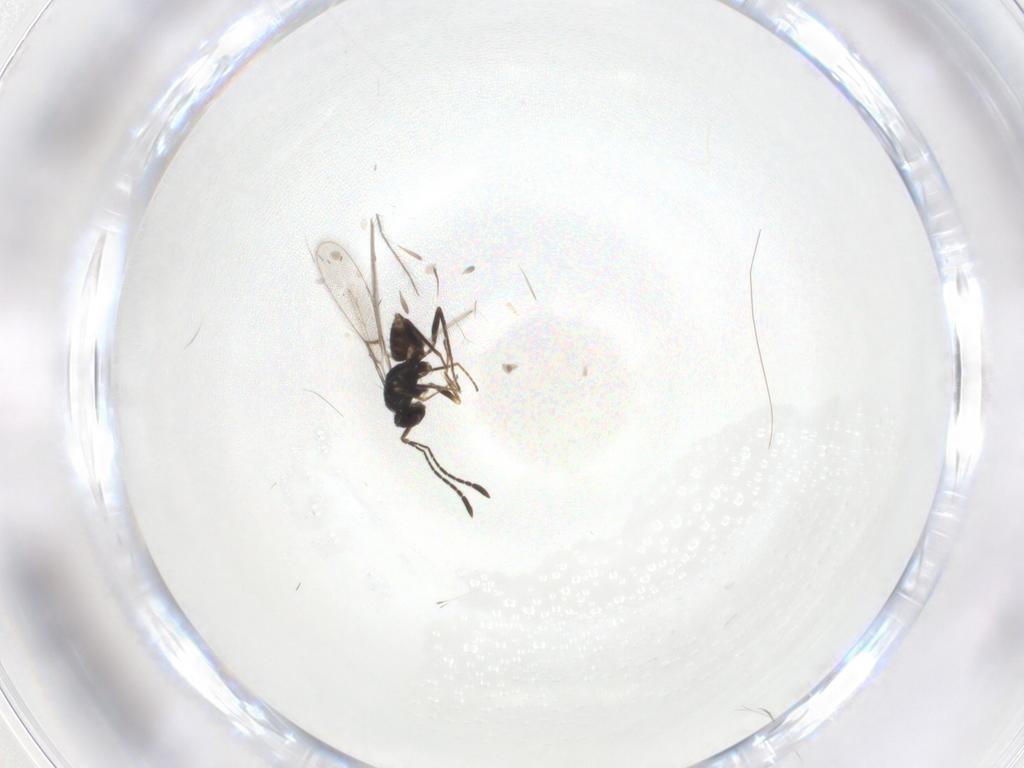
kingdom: Animalia
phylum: Arthropoda
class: Insecta
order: Hymenoptera
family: Mymaridae
